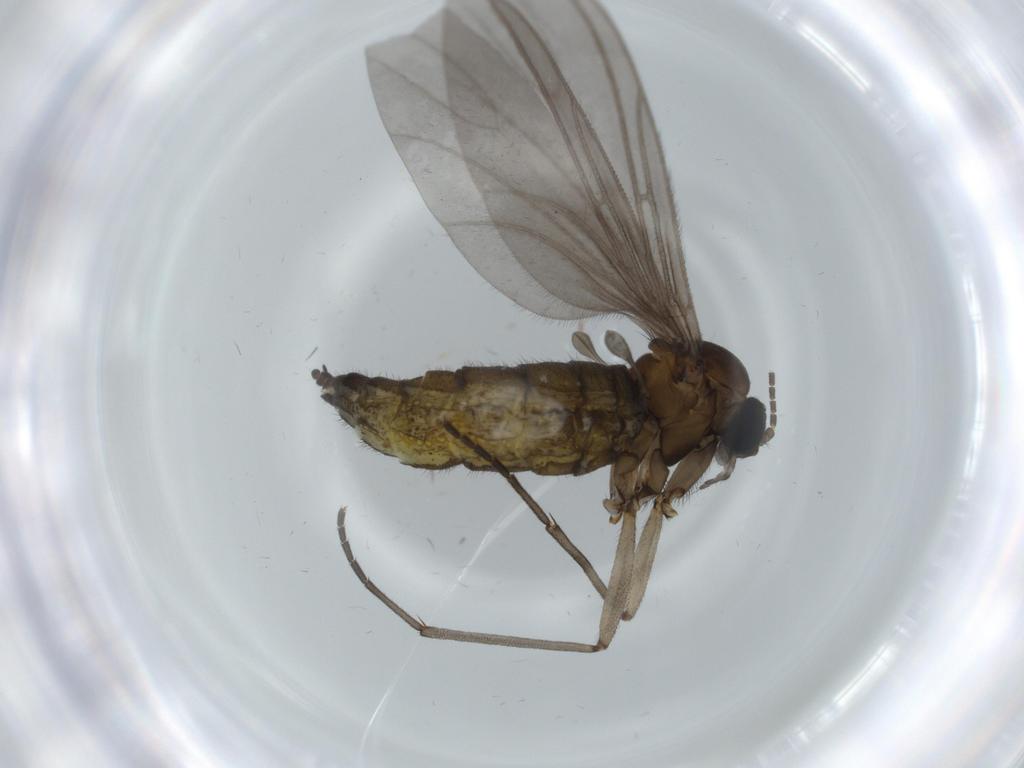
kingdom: Animalia
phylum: Arthropoda
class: Insecta
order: Diptera
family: Sciaridae
